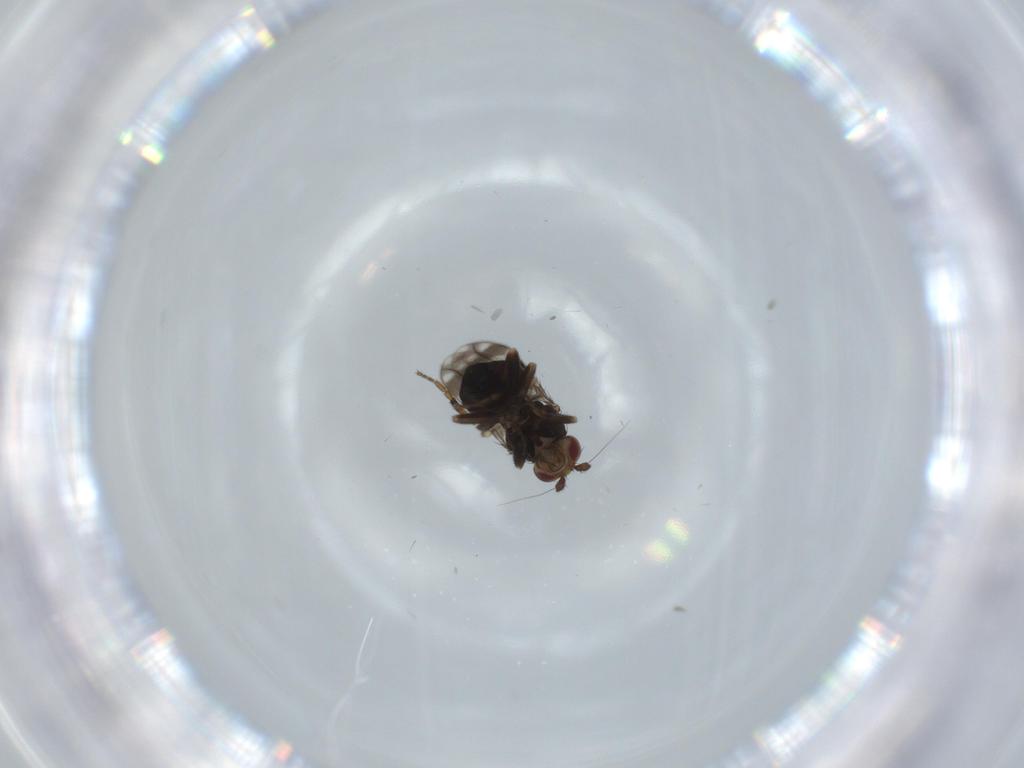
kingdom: Animalia
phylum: Arthropoda
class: Insecta
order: Diptera
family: Sphaeroceridae
